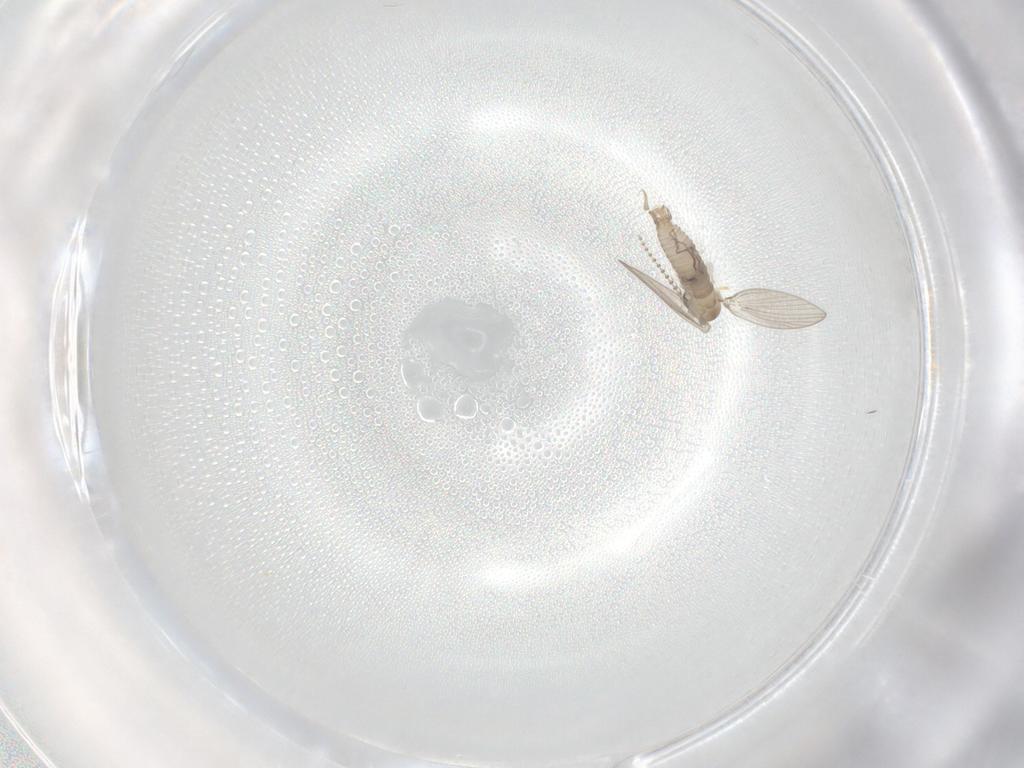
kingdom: Animalia
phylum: Arthropoda
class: Insecta
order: Diptera
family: Psychodidae
